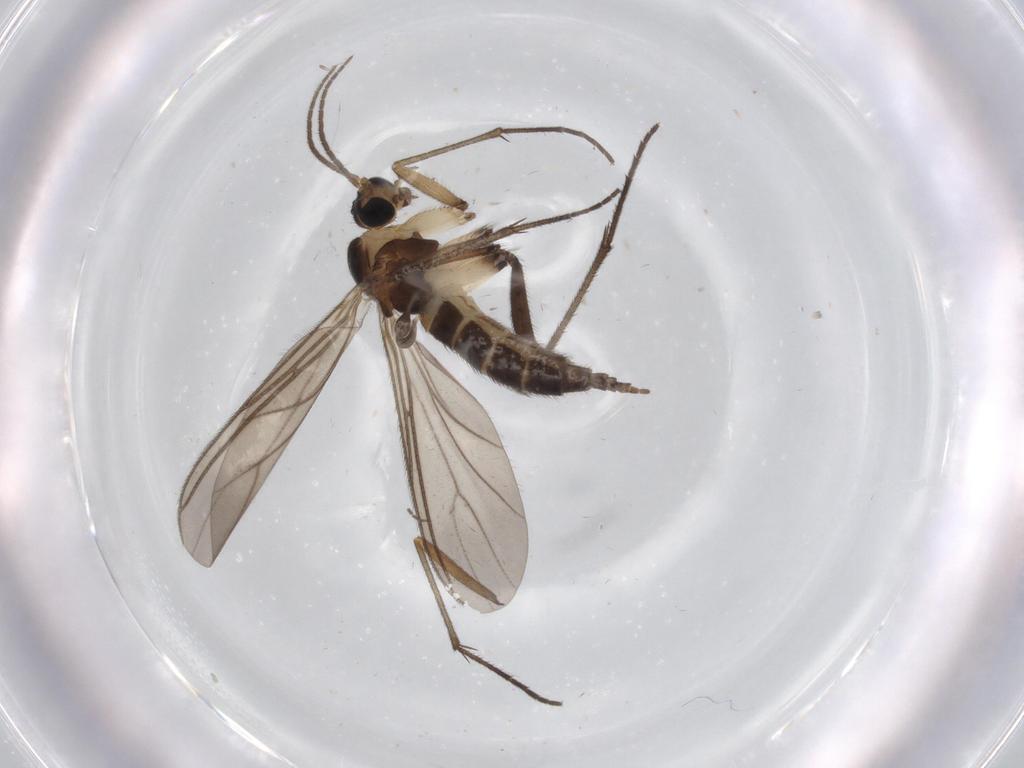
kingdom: Animalia
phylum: Arthropoda
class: Insecta
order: Diptera
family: Sciaridae
